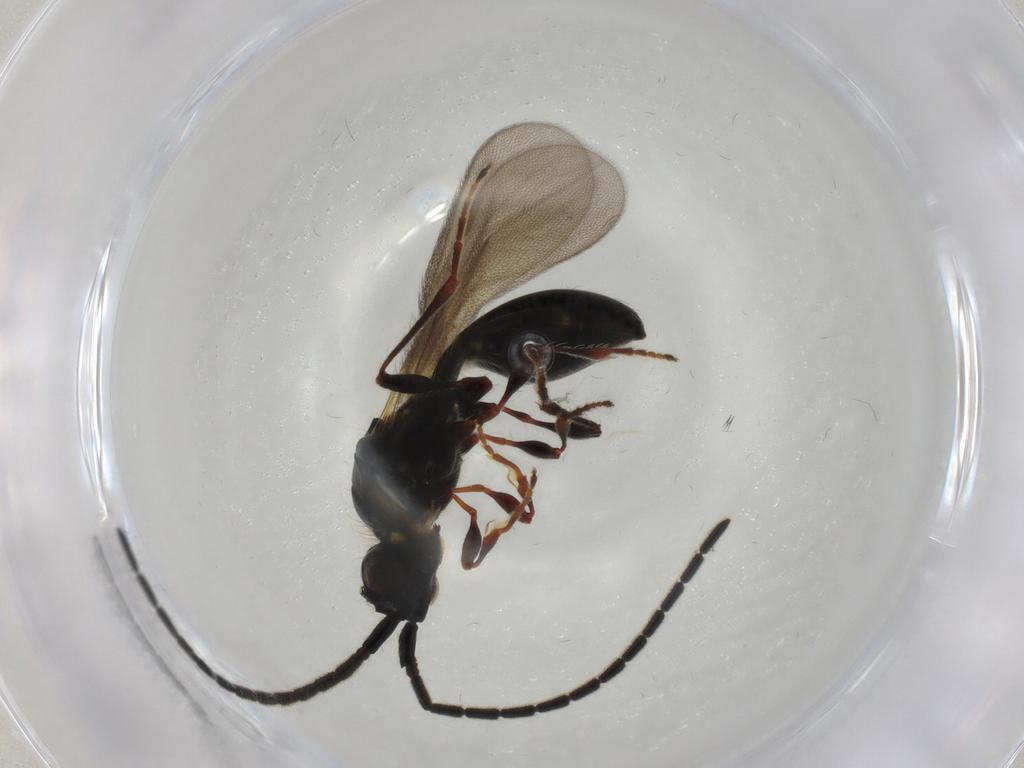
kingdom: Animalia
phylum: Arthropoda
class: Insecta
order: Hymenoptera
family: Diapriidae
